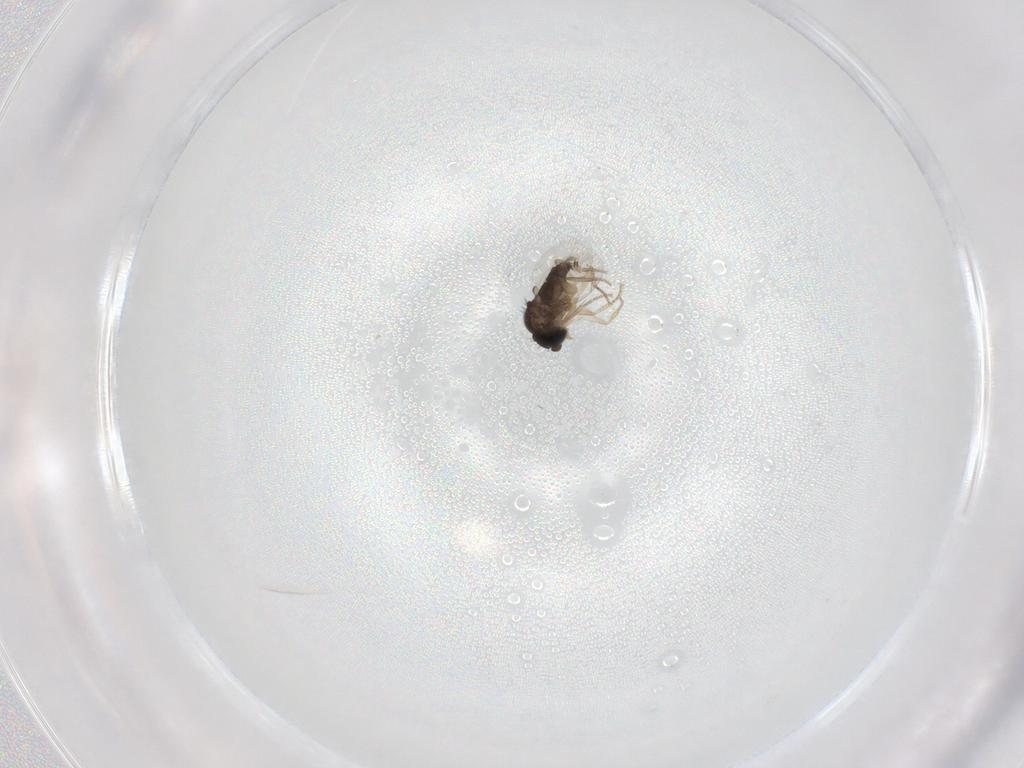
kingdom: Animalia
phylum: Arthropoda
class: Insecta
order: Diptera
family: Phoridae
